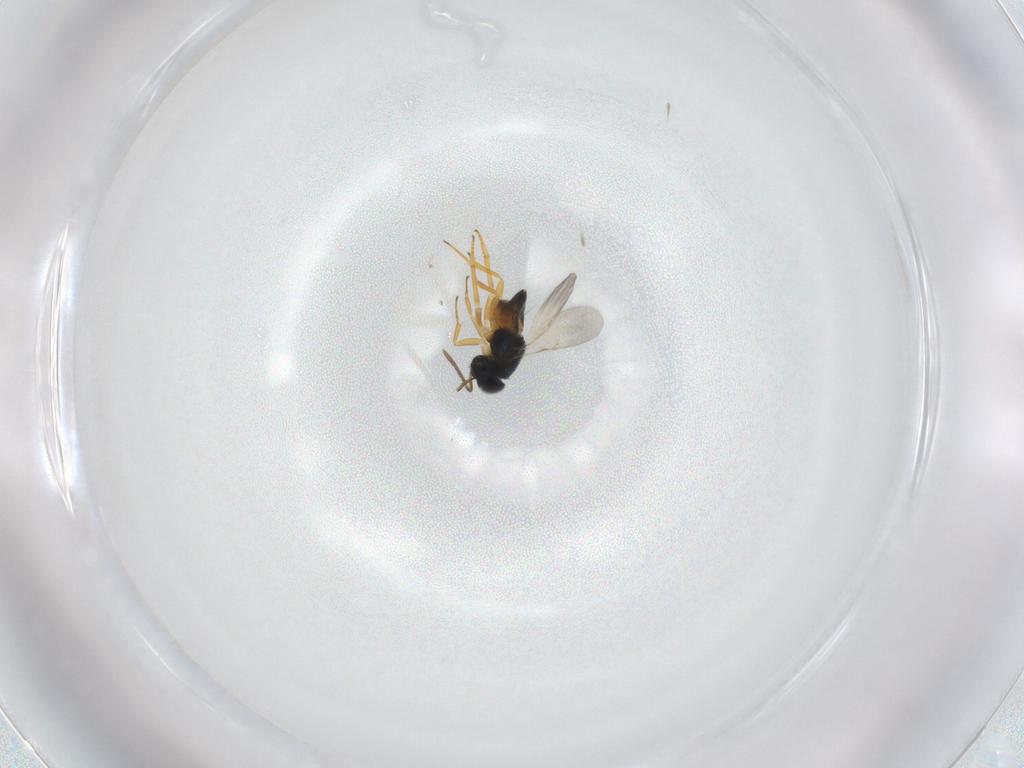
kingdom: Animalia
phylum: Arthropoda
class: Insecta
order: Hymenoptera
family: Encyrtidae
